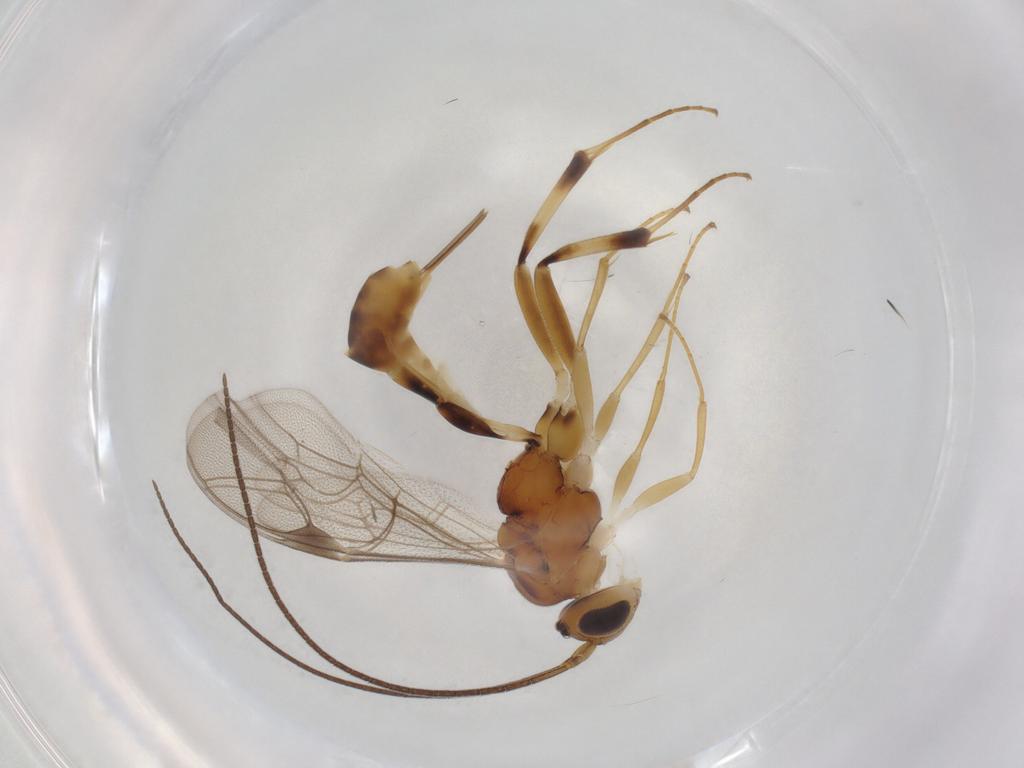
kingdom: Animalia
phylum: Arthropoda
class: Insecta
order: Hymenoptera
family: Ichneumonidae
